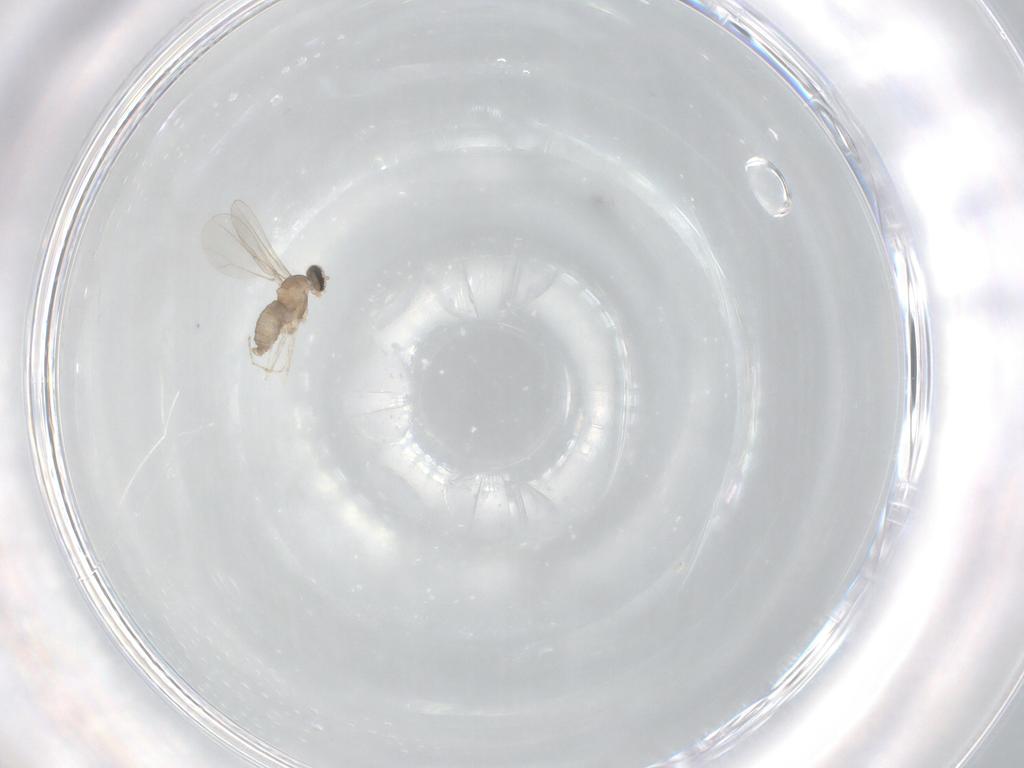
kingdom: Animalia
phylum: Arthropoda
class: Insecta
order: Diptera
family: Cecidomyiidae
